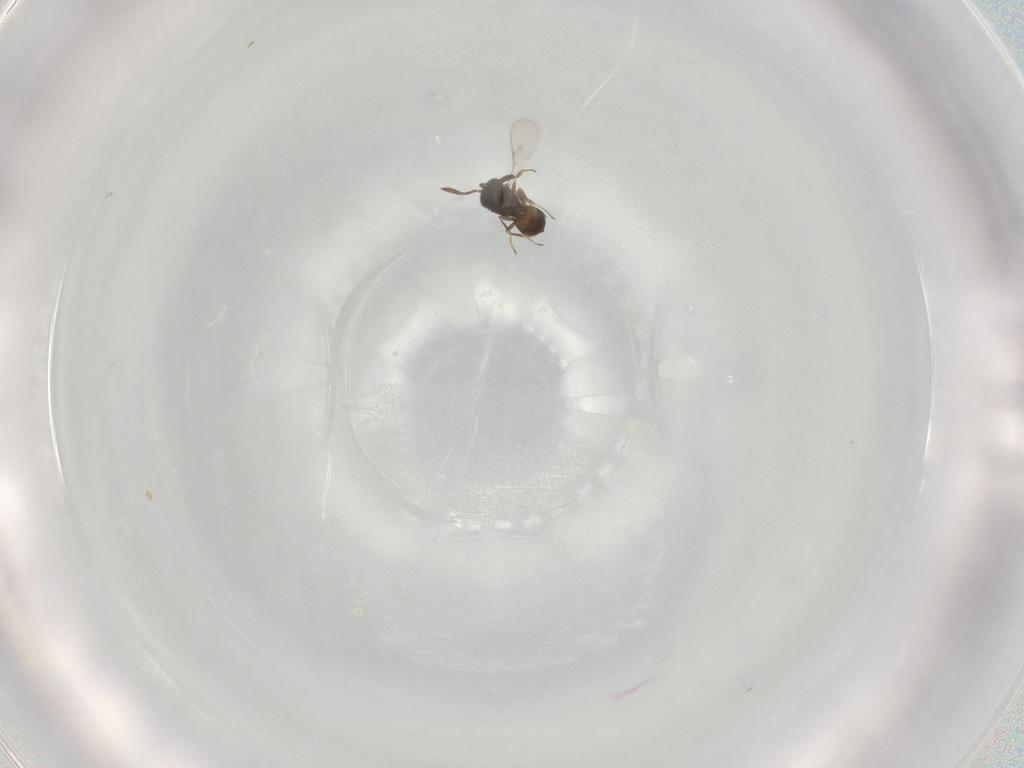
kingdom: Animalia
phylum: Arthropoda
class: Insecta
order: Hymenoptera
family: Scelionidae
